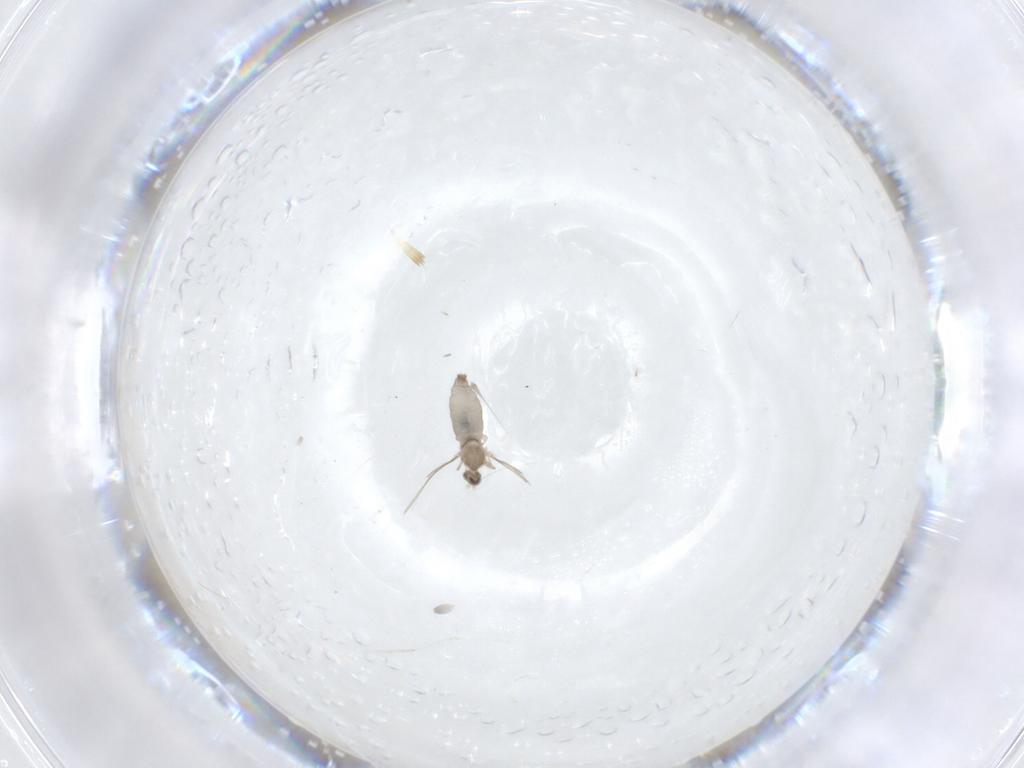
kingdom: Animalia
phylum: Arthropoda
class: Insecta
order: Diptera
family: Cecidomyiidae
